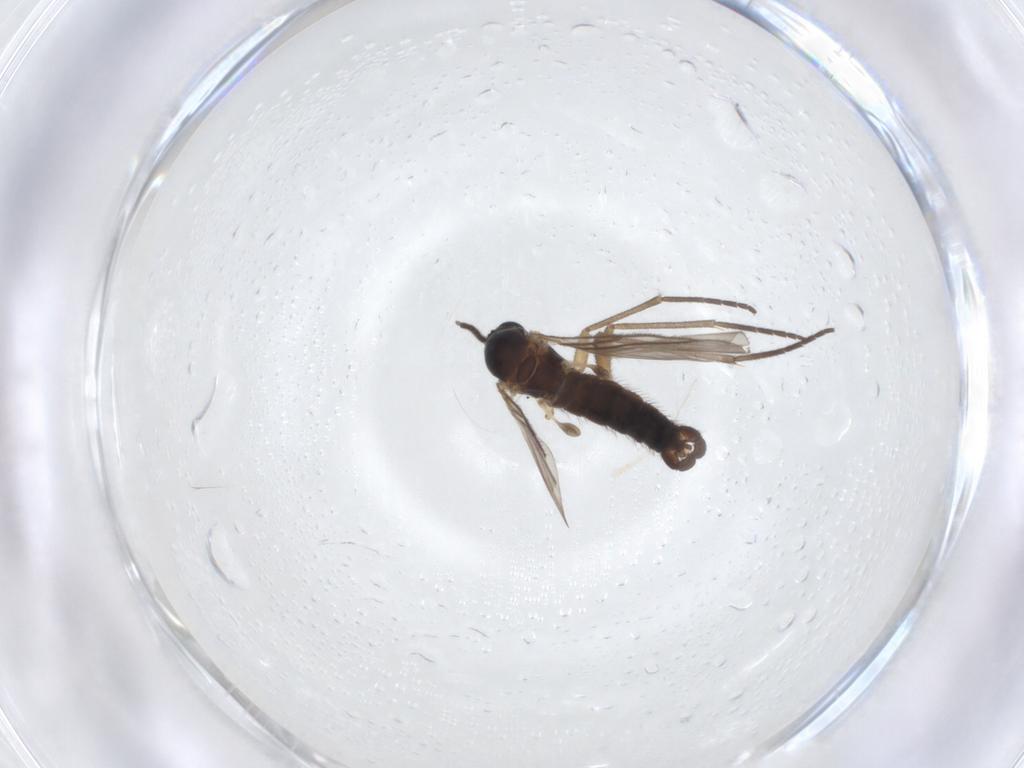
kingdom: Animalia
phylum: Arthropoda
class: Insecta
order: Diptera
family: Sciaridae
